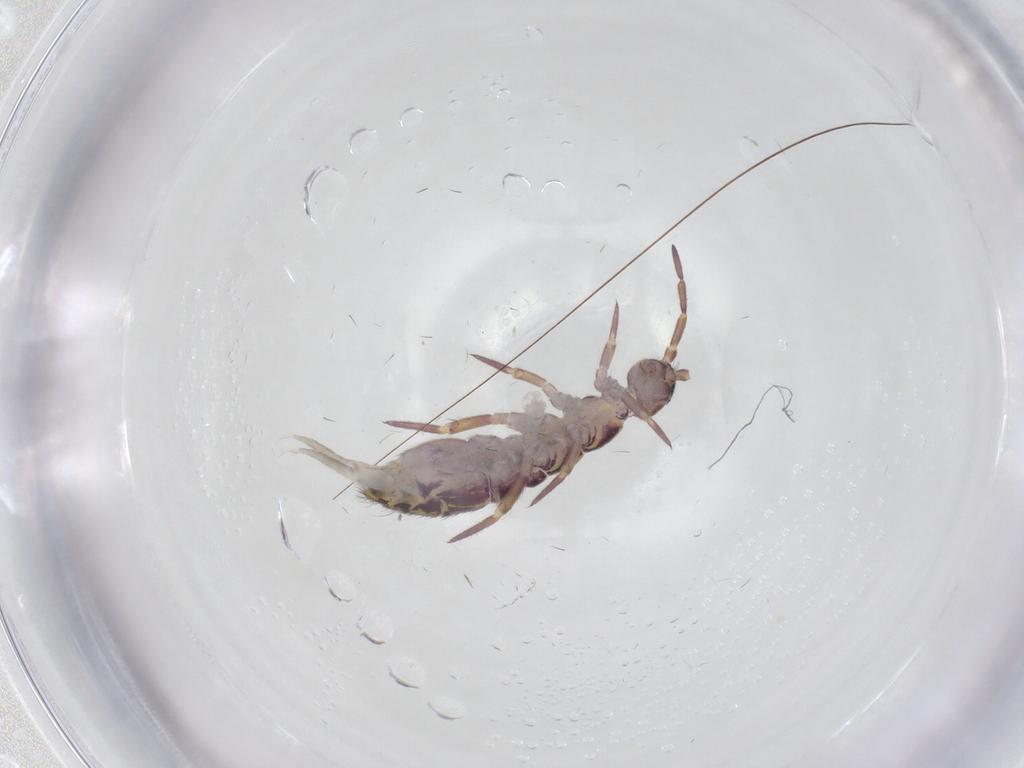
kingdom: Animalia
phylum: Arthropoda
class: Collembola
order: Entomobryomorpha
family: Isotomidae
